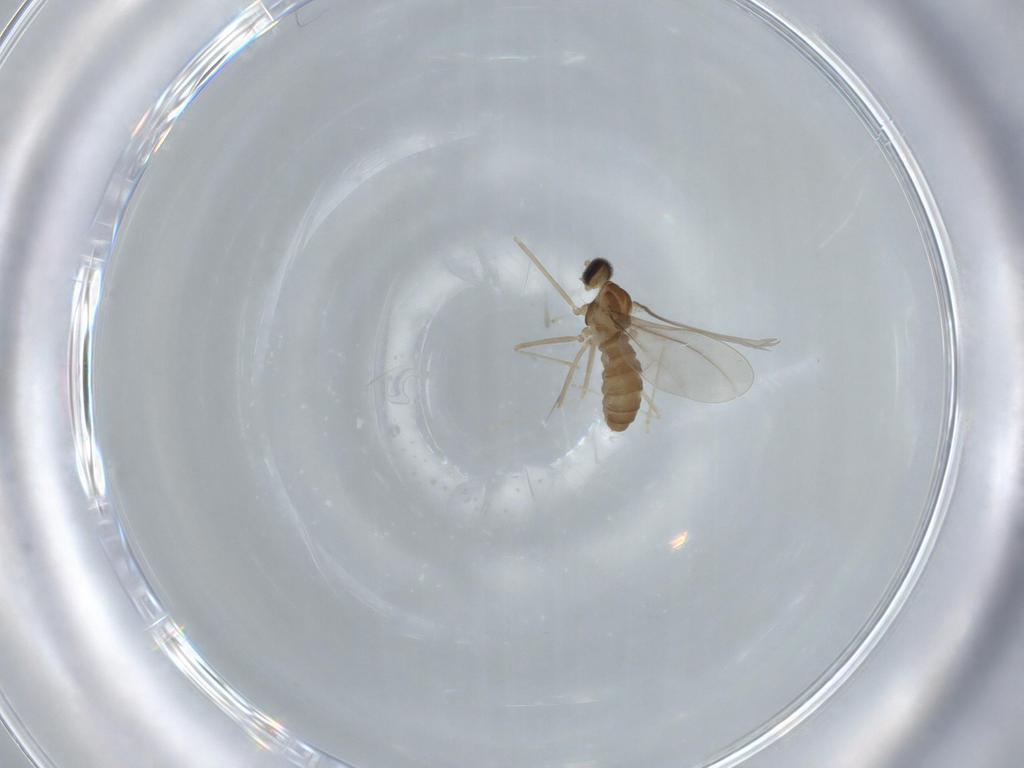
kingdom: Animalia
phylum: Arthropoda
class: Insecta
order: Diptera
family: Cecidomyiidae
